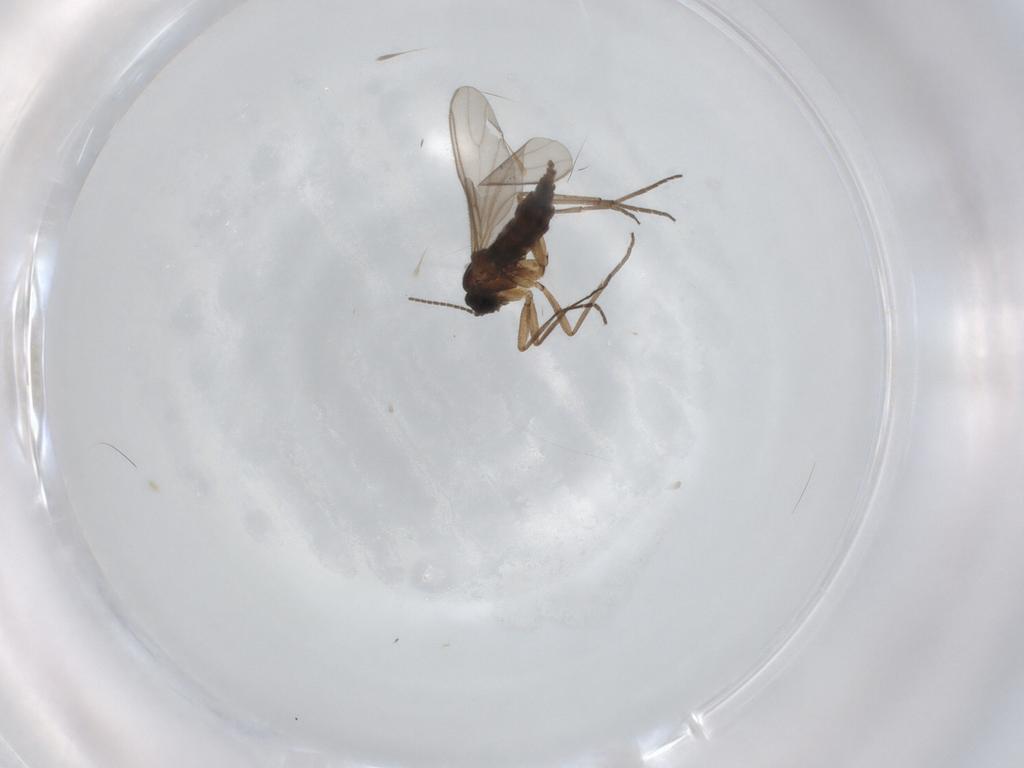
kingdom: Animalia
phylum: Arthropoda
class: Insecta
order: Diptera
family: Sciaridae
